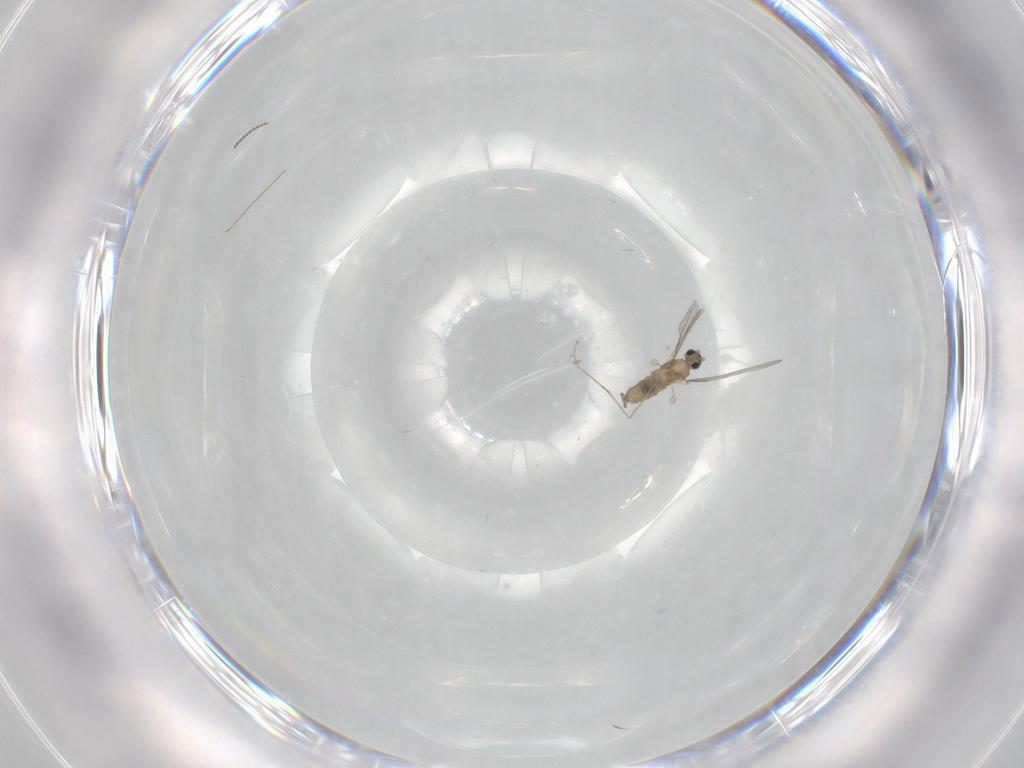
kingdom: Animalia
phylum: Arthropoda
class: Insecta
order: Diptera
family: Cecidomyiidae
